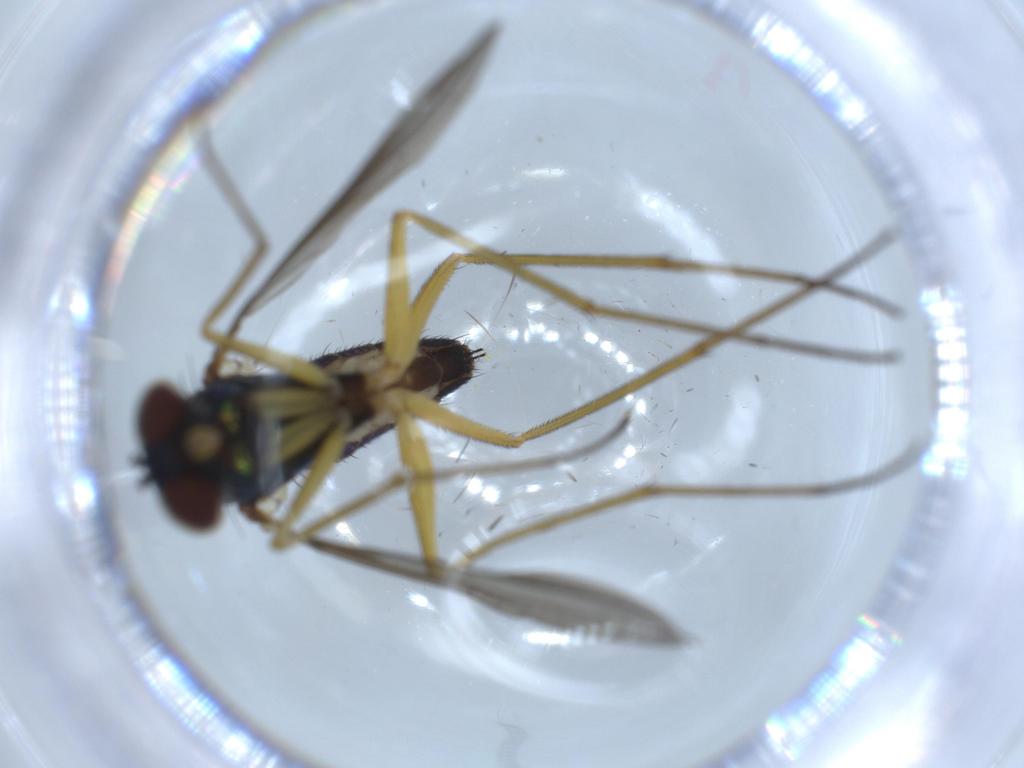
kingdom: Animalia
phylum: Arthropoda
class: Insecta
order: Diptera
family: Dolichopodidae
